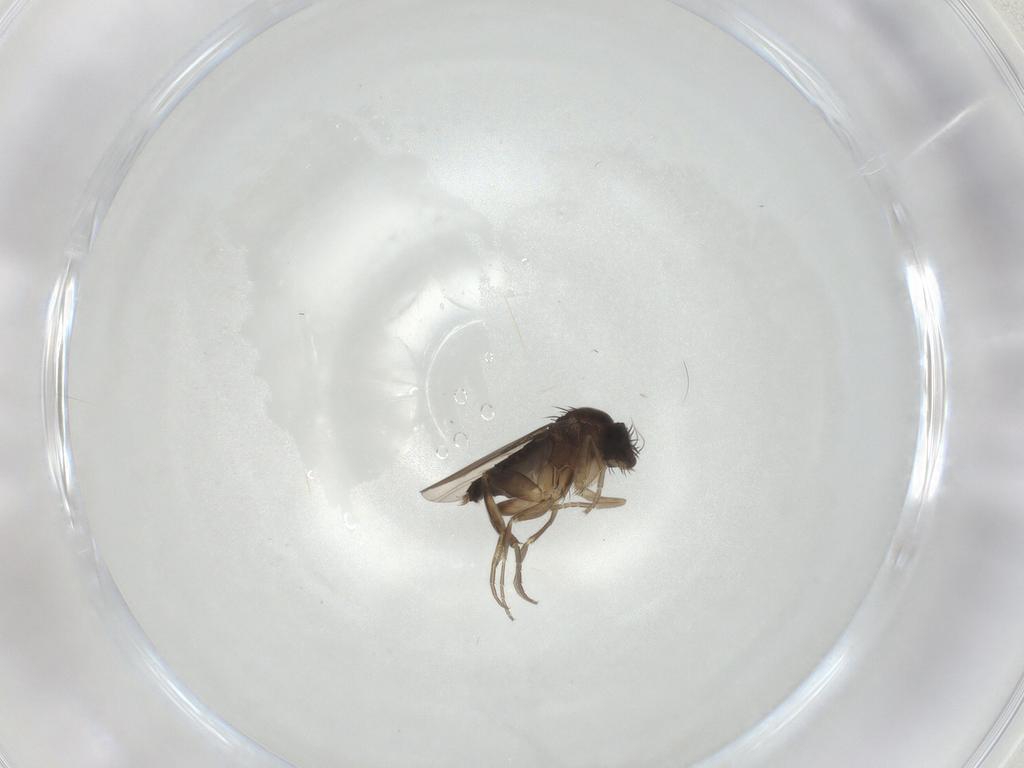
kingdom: Animalia
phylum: Arthropoda
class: Insecta
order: Diptera
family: Phoridae
